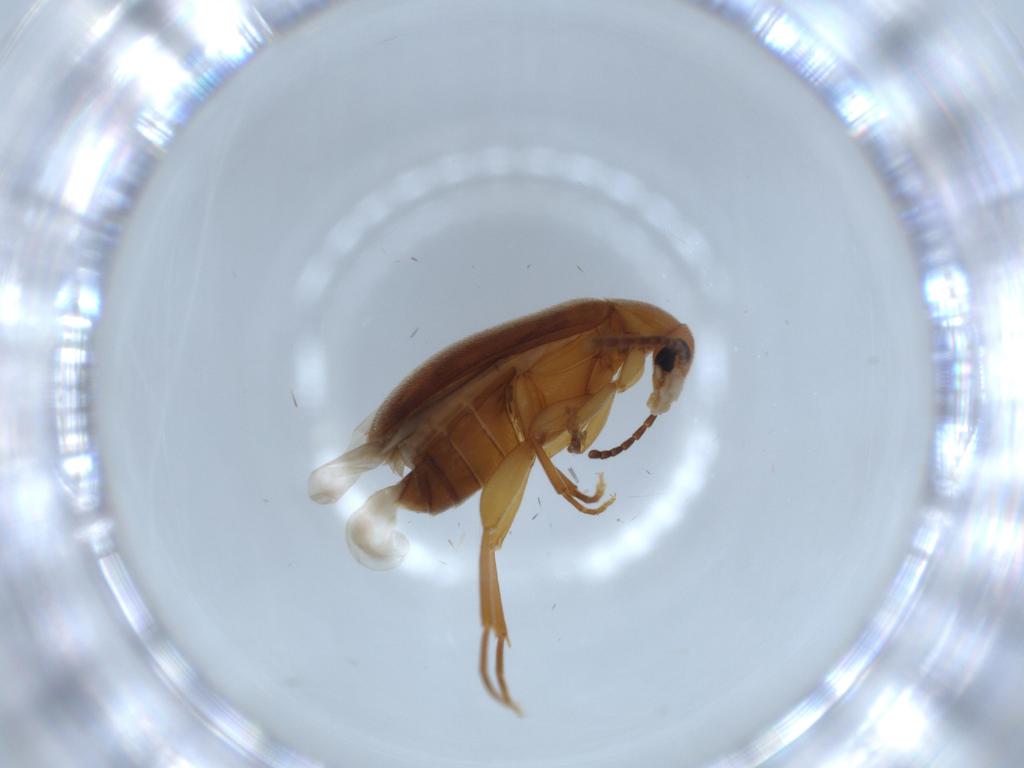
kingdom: Animalia
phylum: Arthropoda
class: Insecta
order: Coleoptera
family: Scraptiidae
